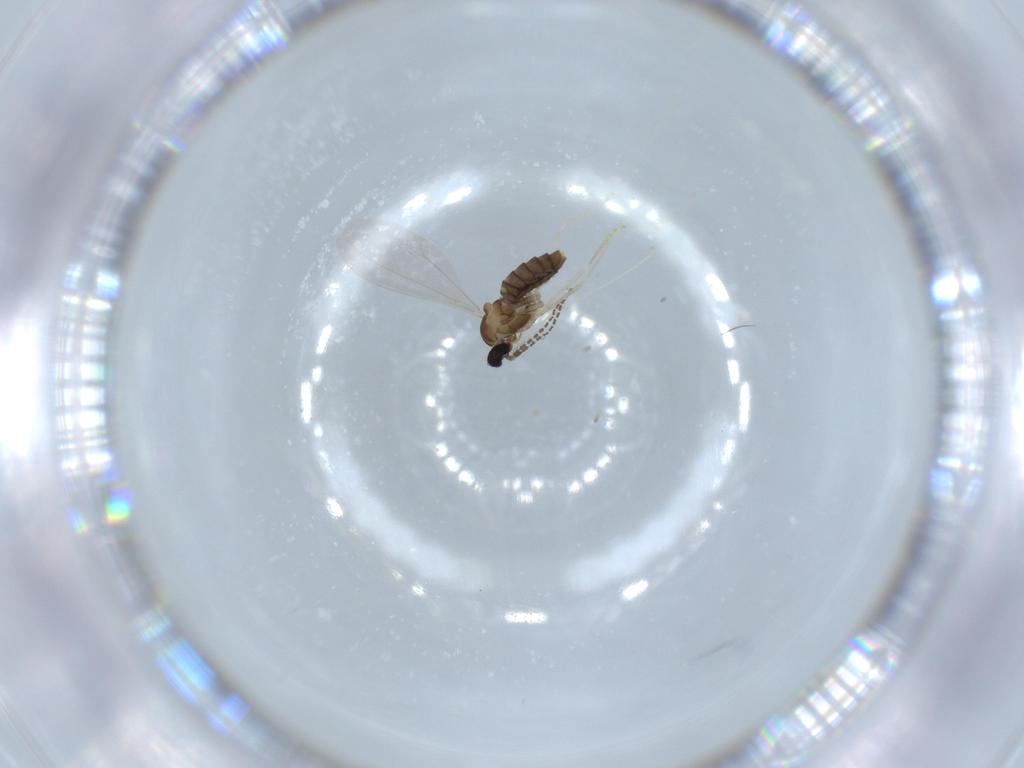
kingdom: Animalia
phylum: Arthropoda
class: Insecta
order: Diptera
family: Cecidomyiidae
